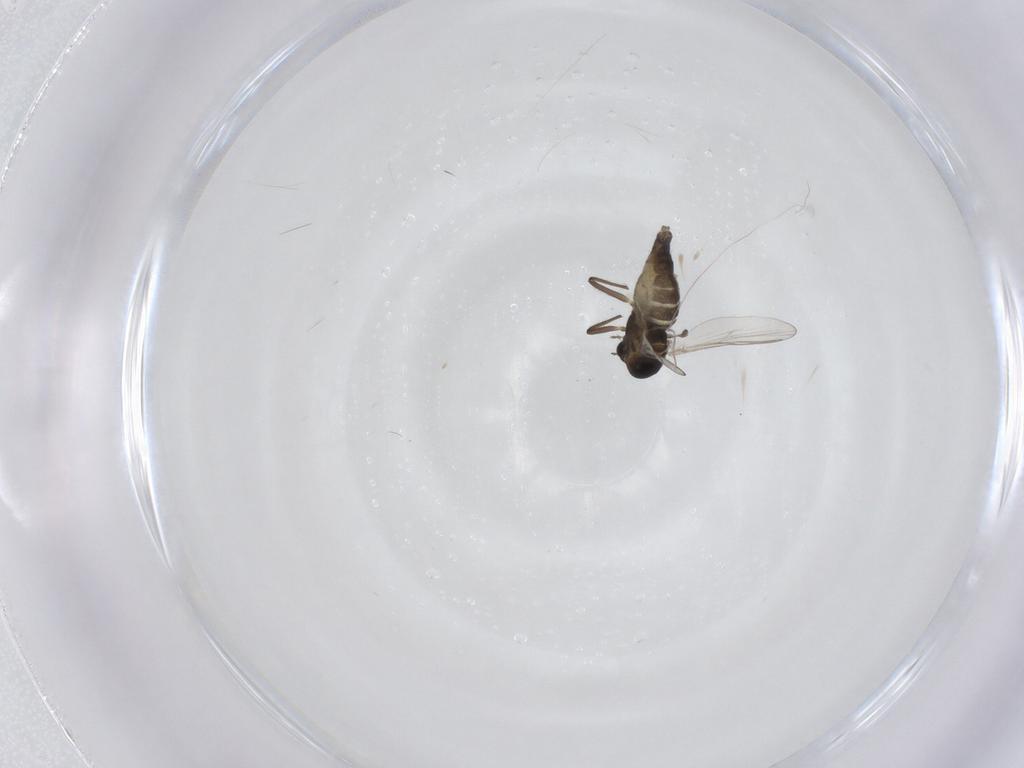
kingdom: Animalia
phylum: Arthropoda
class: Insecta
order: Diptera
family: Chironomidae
